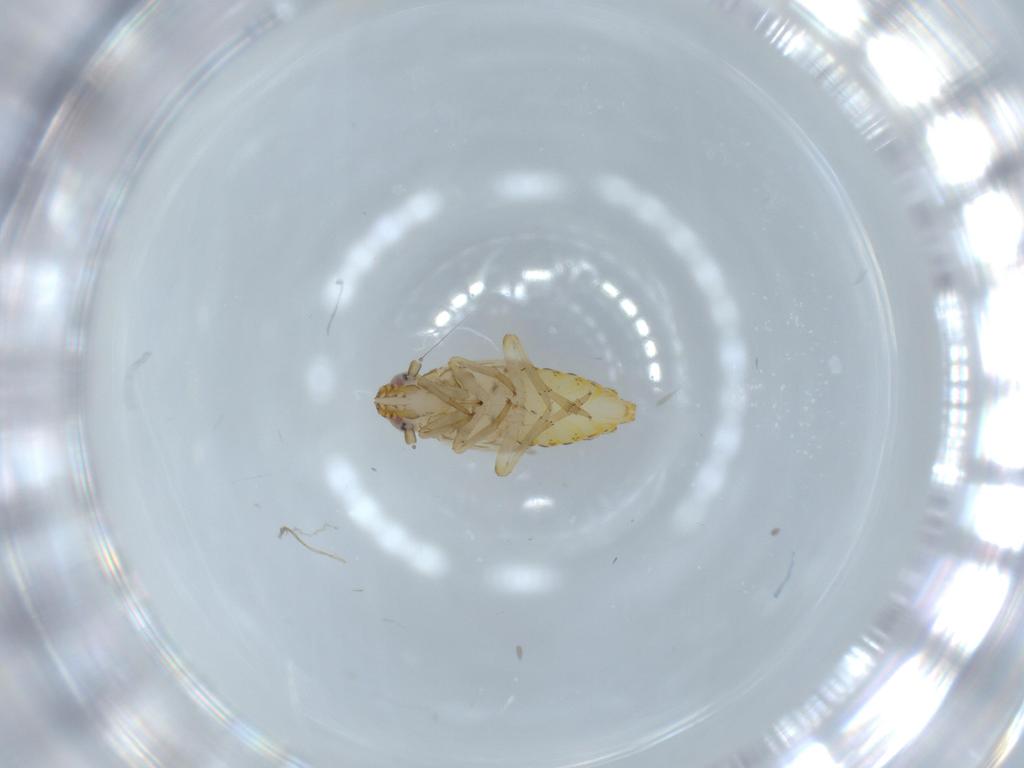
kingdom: Animalia
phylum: Arthropoda
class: Insecta
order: Hemiptera
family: Delphacidae
